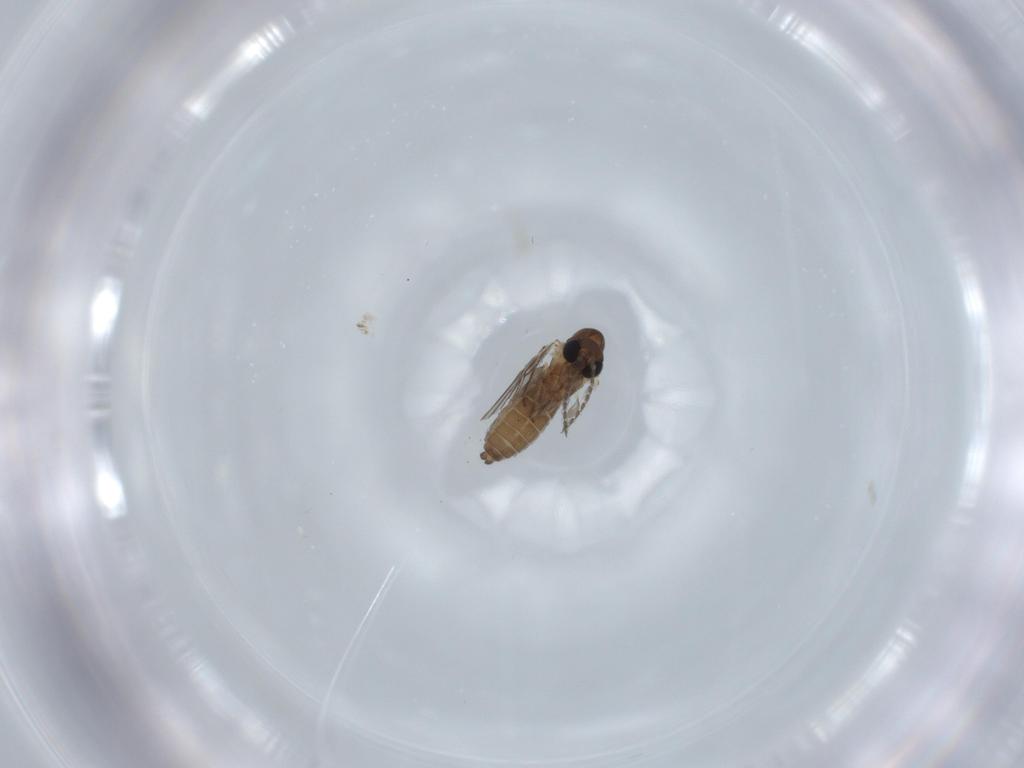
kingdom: Animalia
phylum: Arthropoda
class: Insecta
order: Diptera
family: Psychodidae
